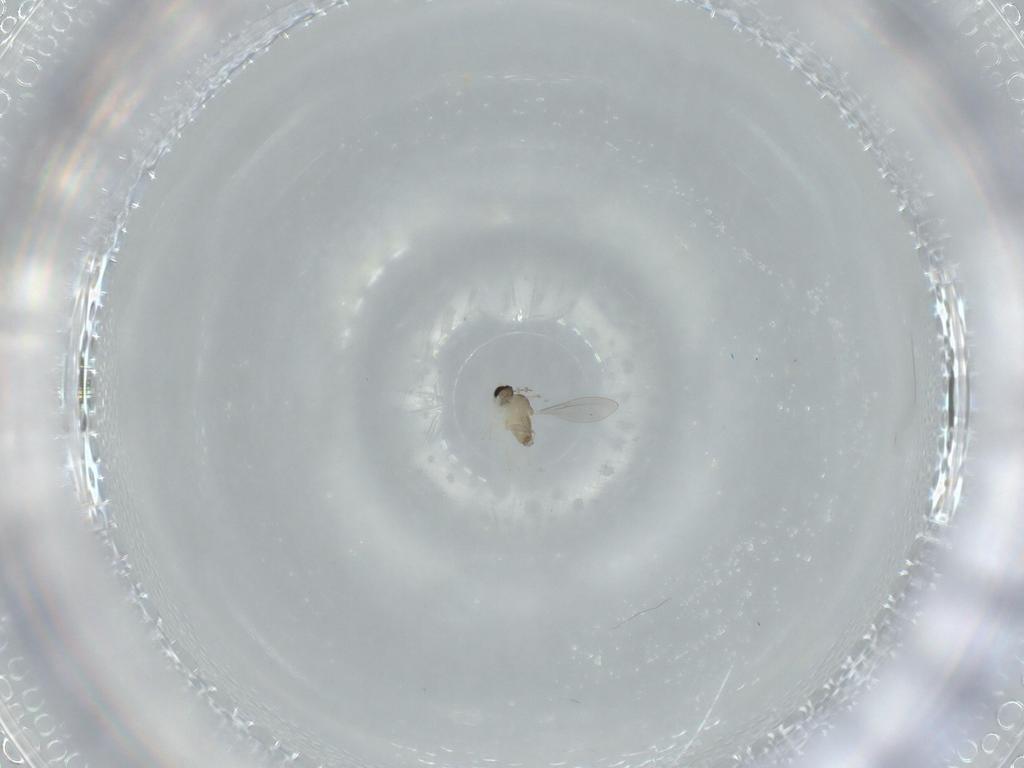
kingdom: Animalia
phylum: Arthropoda
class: Insecta
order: Diptera
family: Cecidomyiidae
